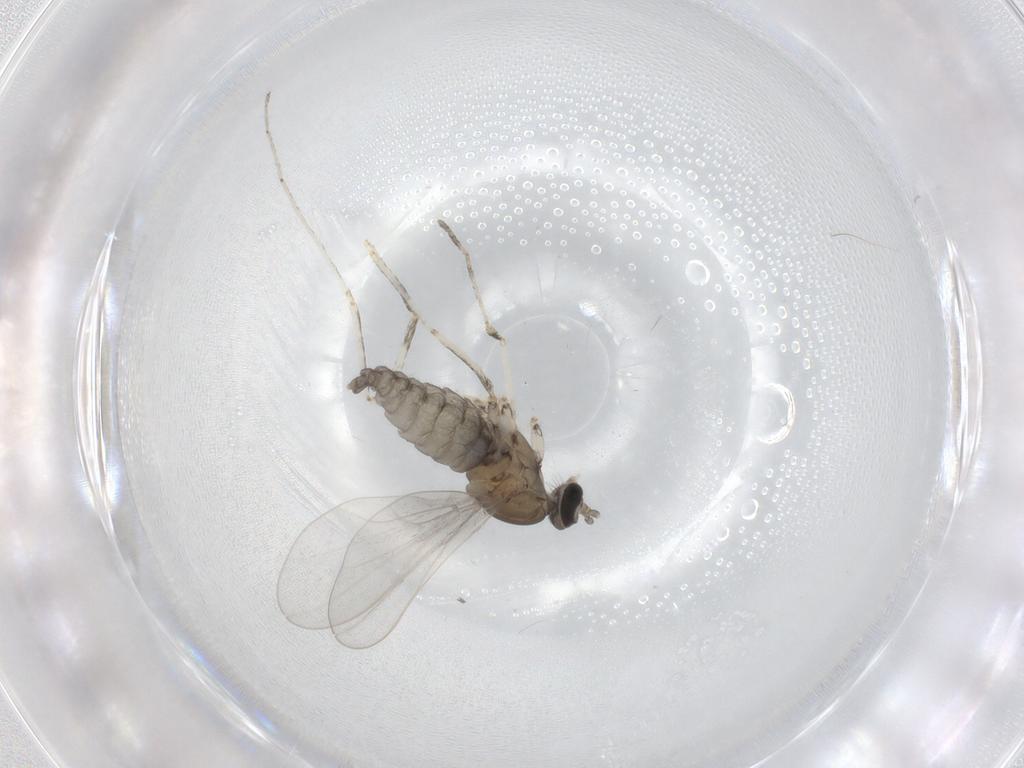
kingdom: Animalia
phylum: Arthropoda
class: Insecta
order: Diptera
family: Cecidomyiidae
